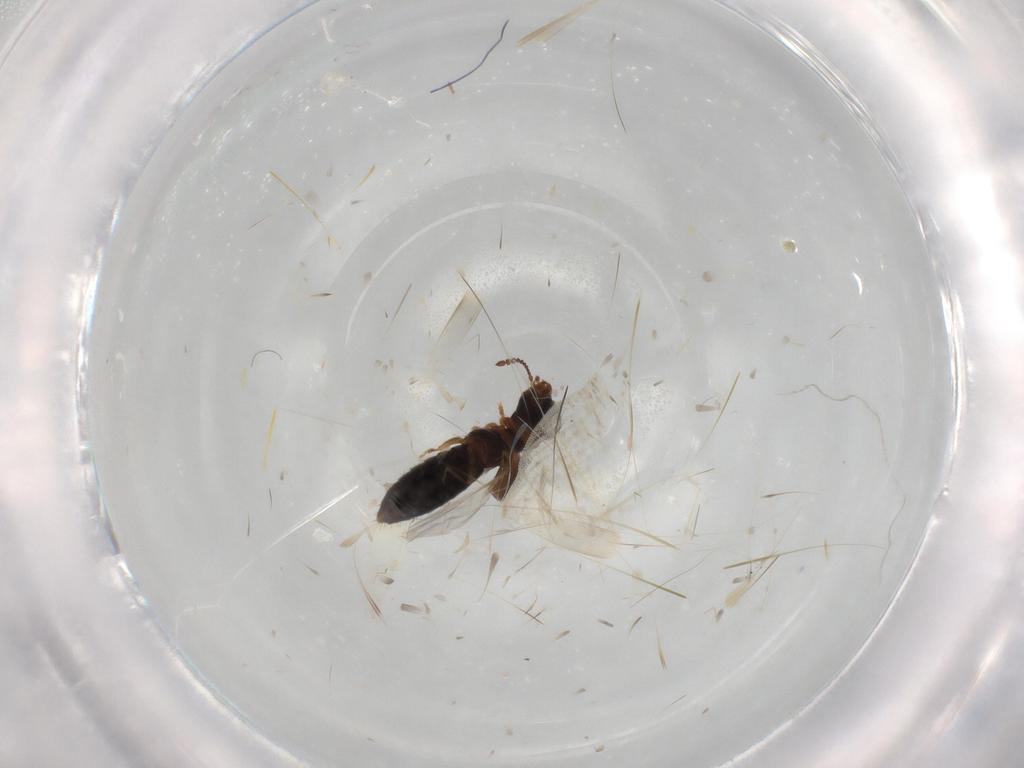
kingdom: Animalia
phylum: Arthropoda
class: Insecta
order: Coleoptera
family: Staphylinidae
